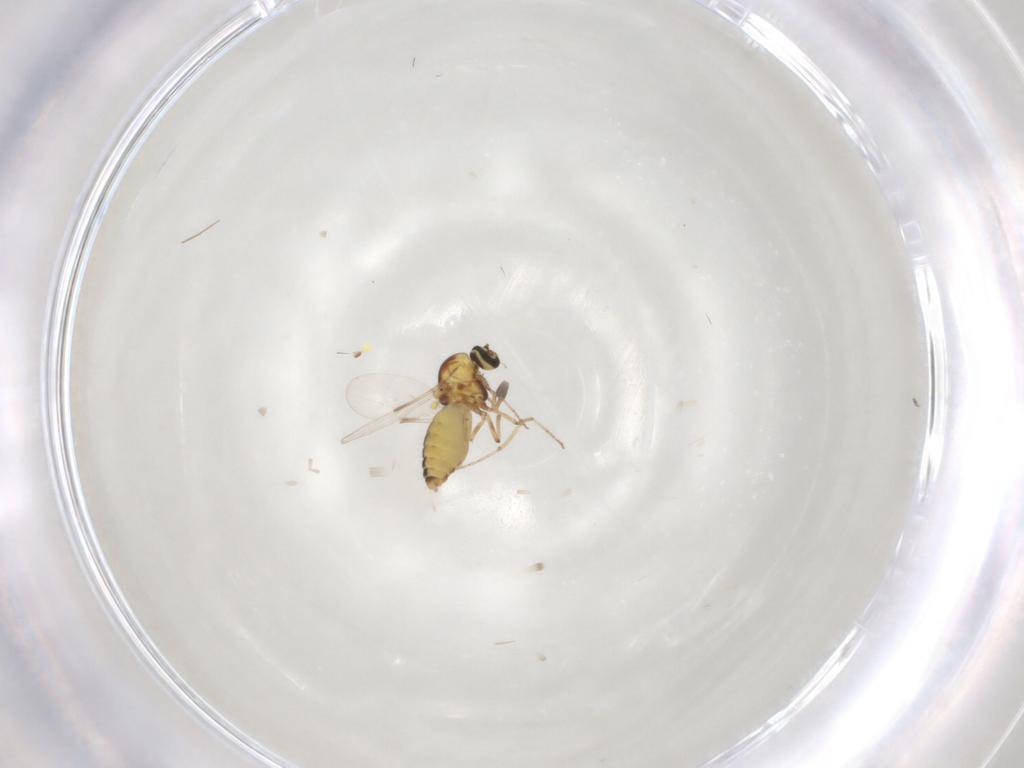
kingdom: Animalia
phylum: Arthropoda
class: Insecta
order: Diptera
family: Ceratopogonidae
